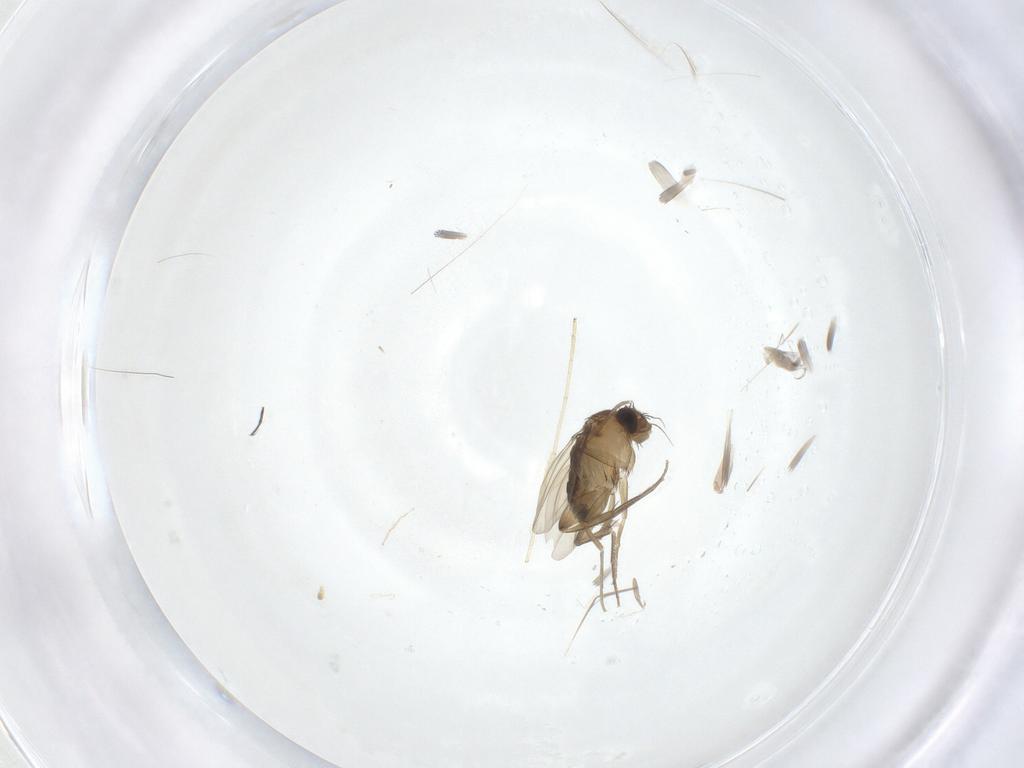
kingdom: Animalia
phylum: Arthropoda
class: Insecta
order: Diptera
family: Phoridae
